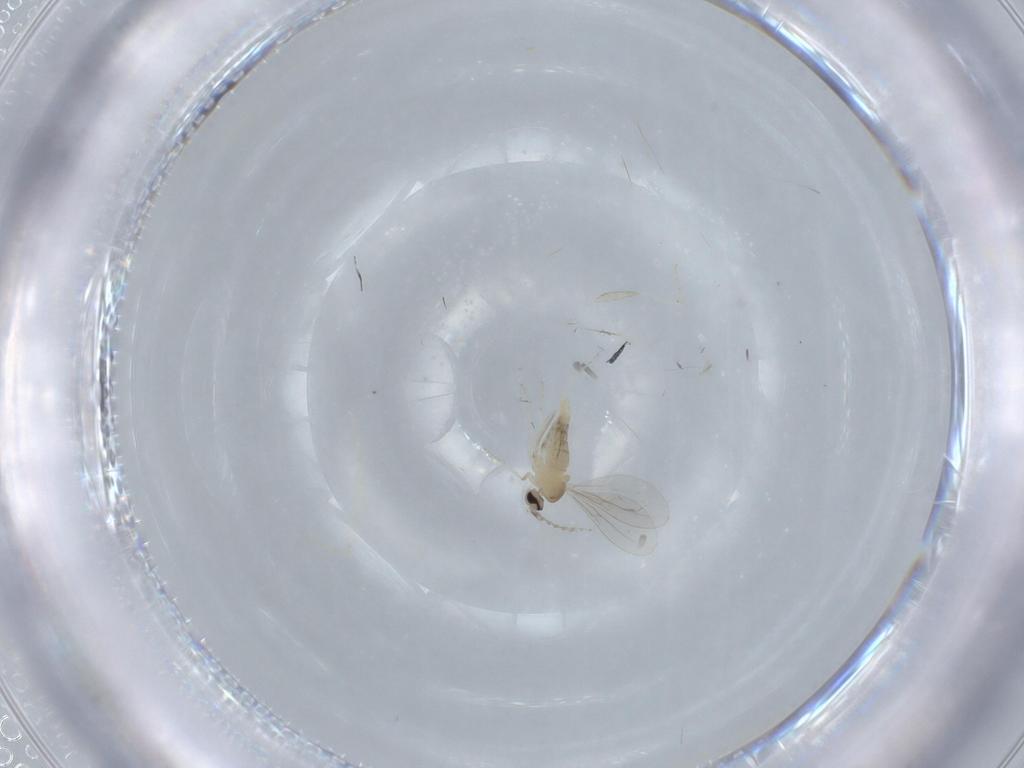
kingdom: Animalia
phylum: Arthropoda
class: Insecta
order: Diptera
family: Cecidomyiidae
